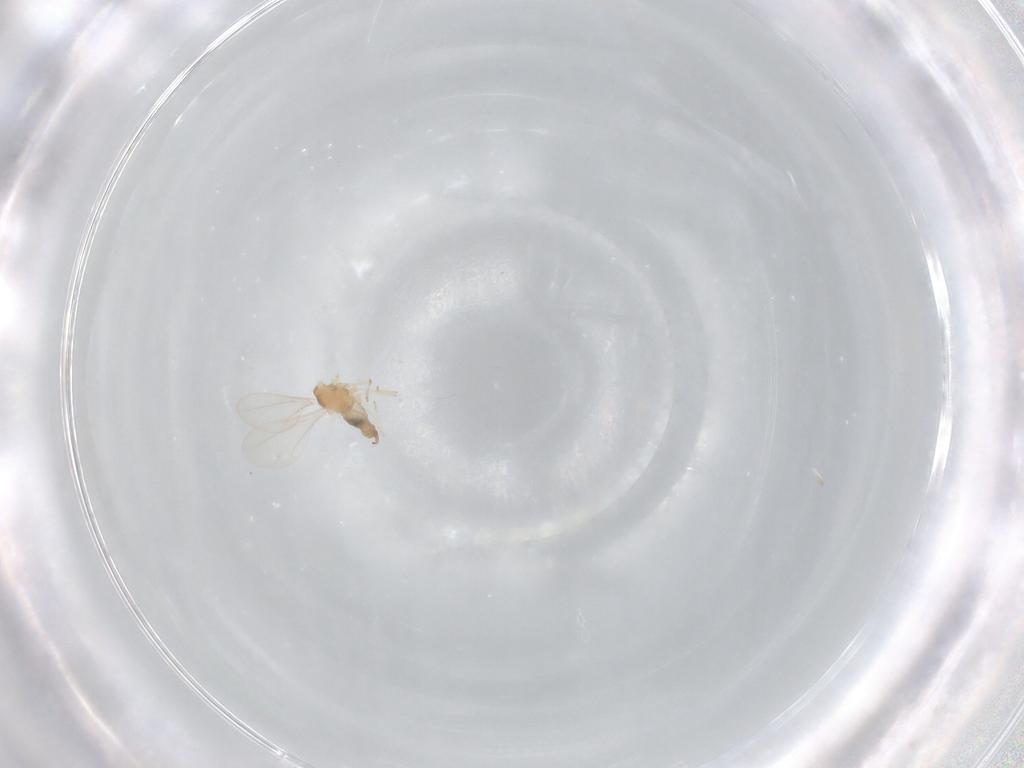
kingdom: Animalia
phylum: Arthropoda
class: Insecta
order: Diptera
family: Cecidomyiidae
